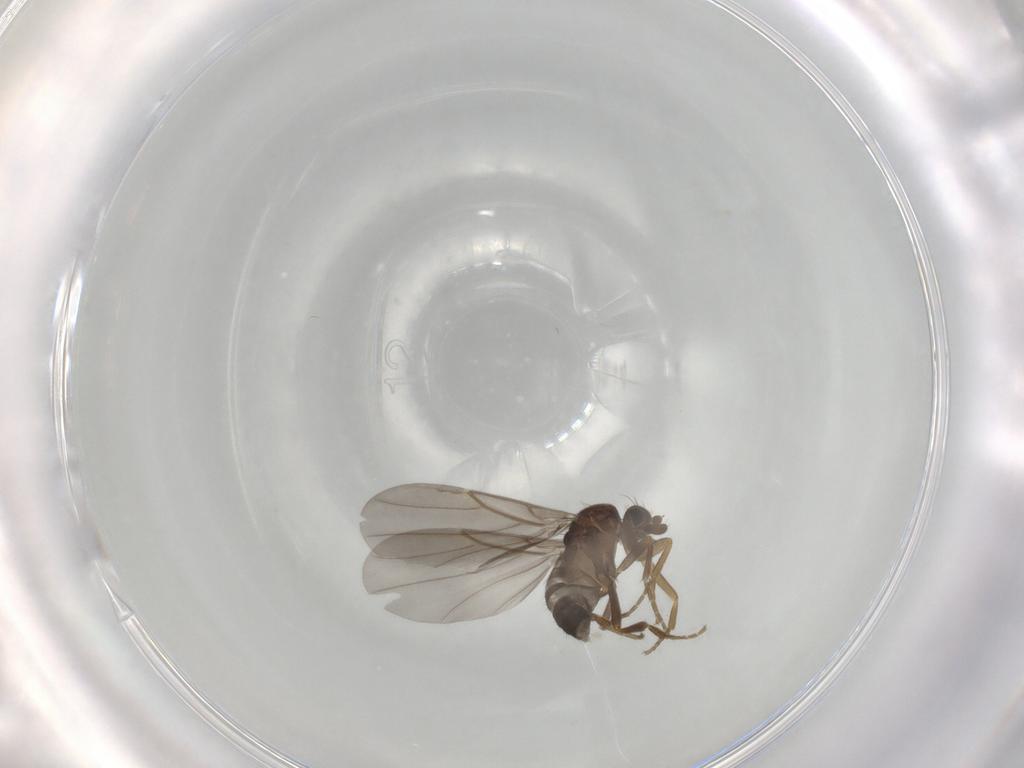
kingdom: Animalia
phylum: Arthropoda
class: Insecta
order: Diptera
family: Phoridae
